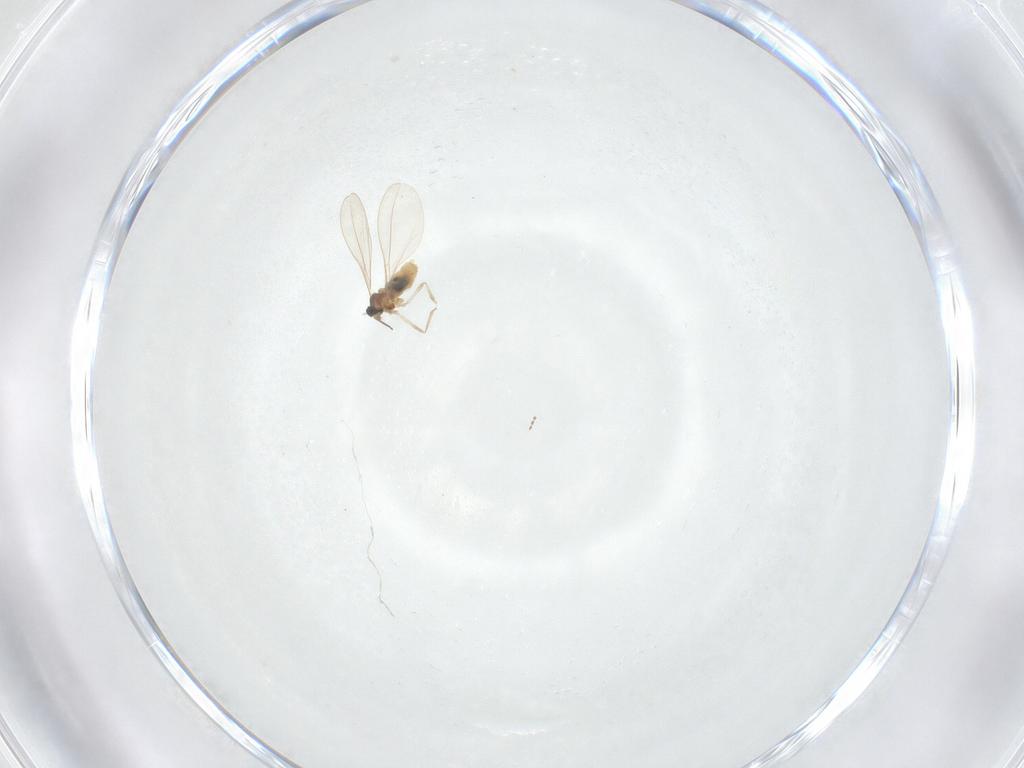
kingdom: Animalia
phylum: Arthropoda
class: Insecta
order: Diptera
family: Cecidomyiidae
